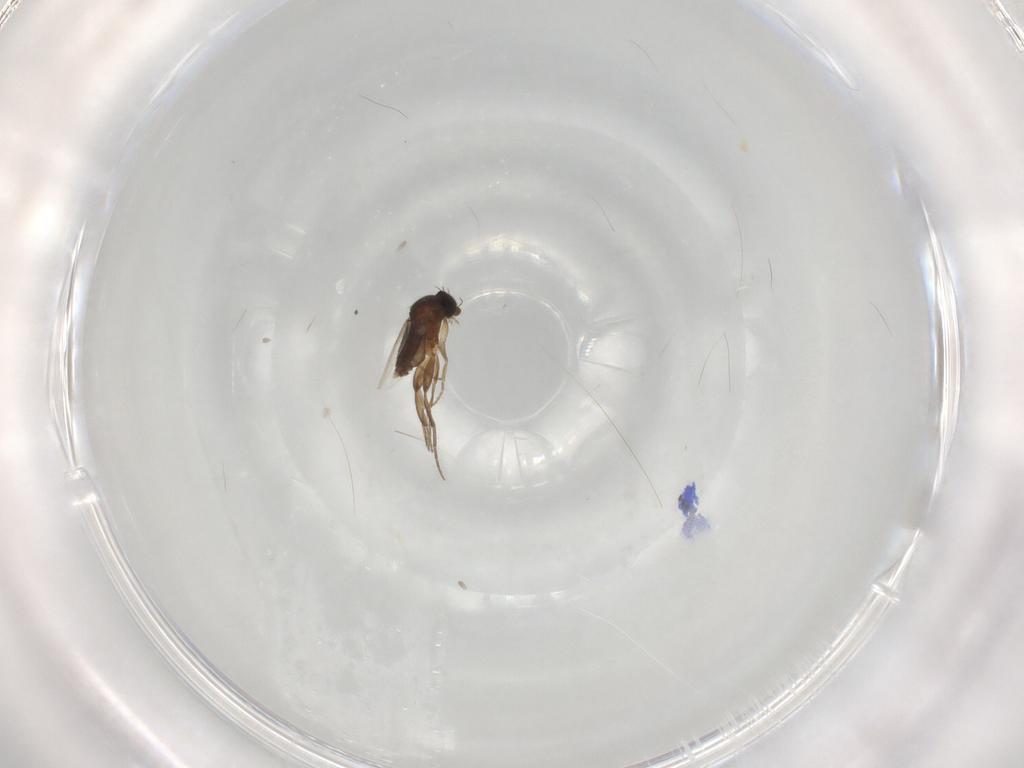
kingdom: Animalia
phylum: Arthropoda
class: Insecta
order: Diptera
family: Phoridae
